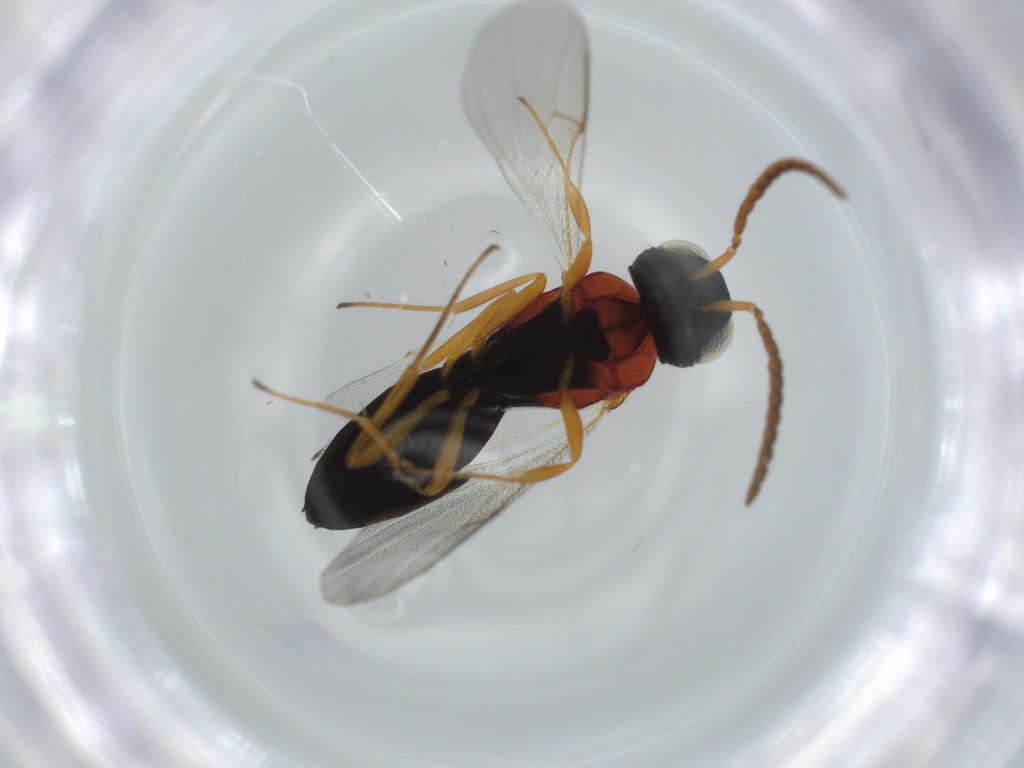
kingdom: Animalia
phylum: Arthropoda
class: Insecta
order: Hymenoptera
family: Scelionidae
